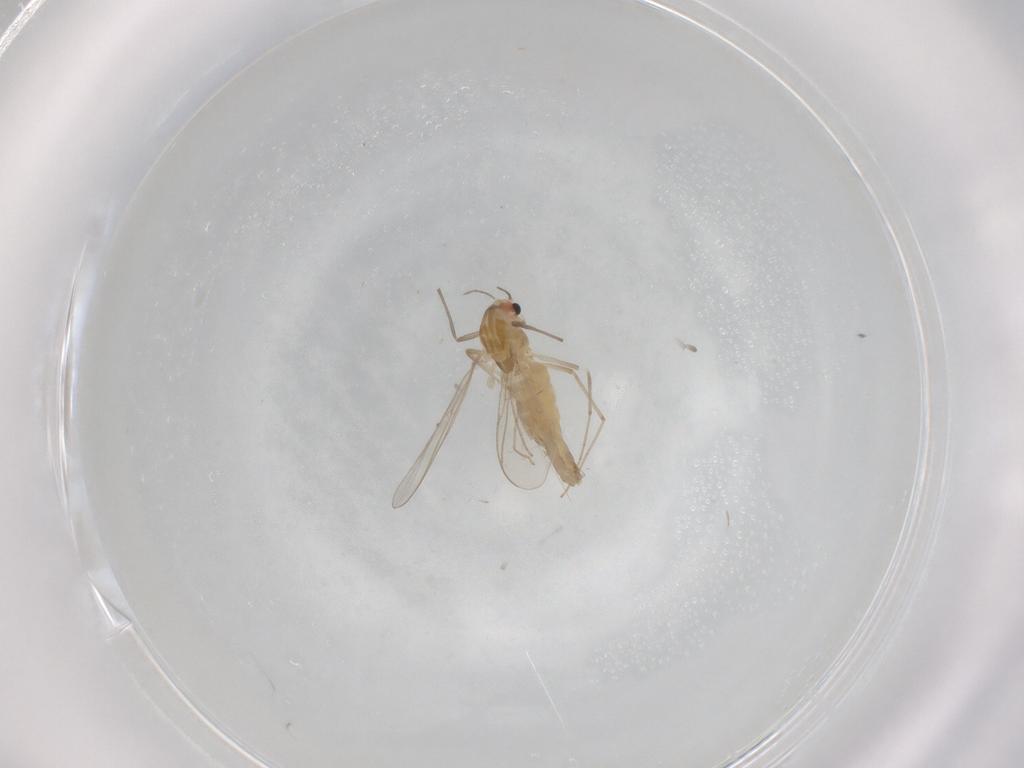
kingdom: Animalia
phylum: Arthropoda
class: Insecta
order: Diptera
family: Chironomidae
